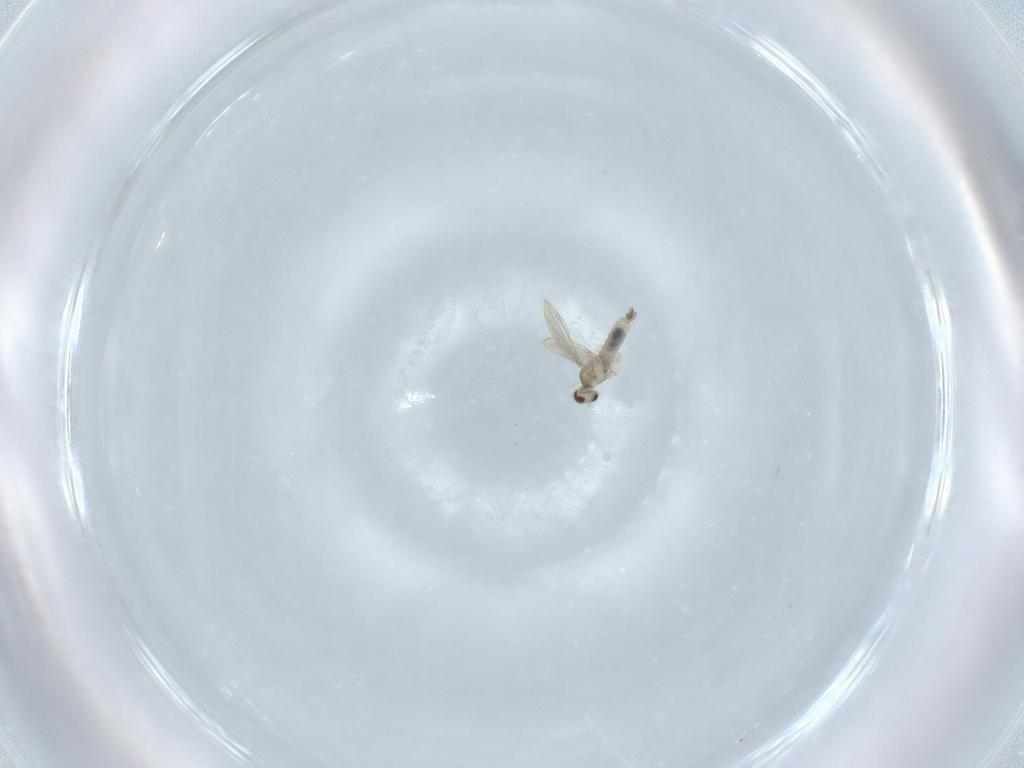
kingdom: Animalia
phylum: Arthropoda
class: Insecta
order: Diptera
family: Cecidomyiidae
